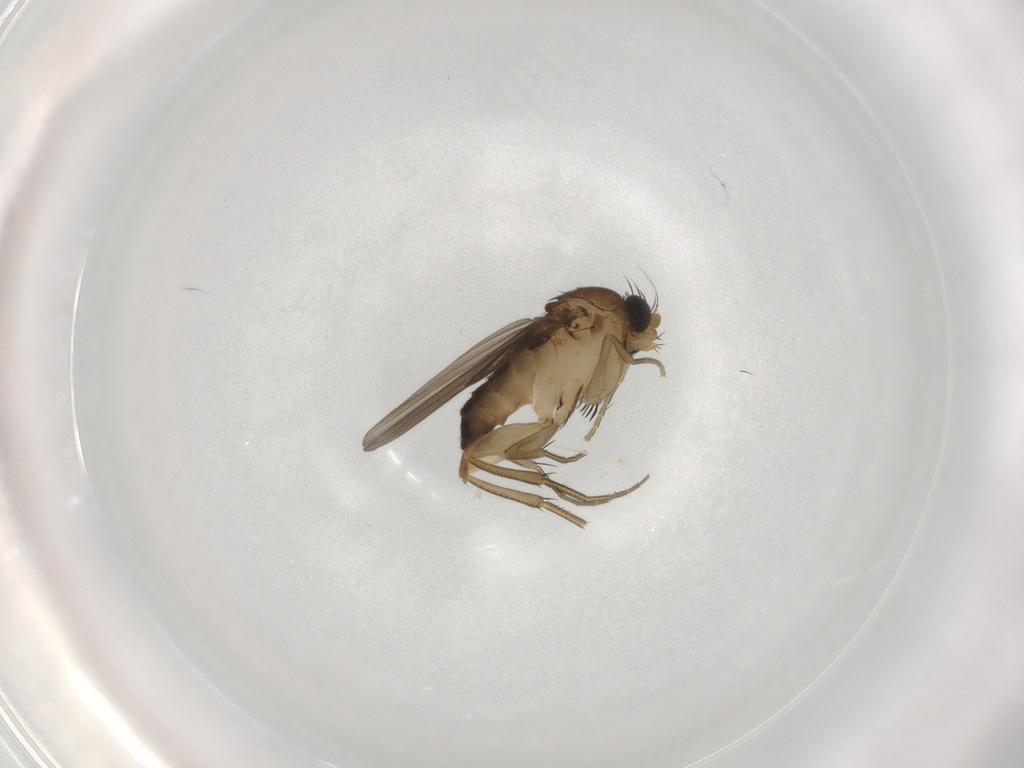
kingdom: Animalia
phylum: Arthropoda
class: Insecta
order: Diptera
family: Phoridae
